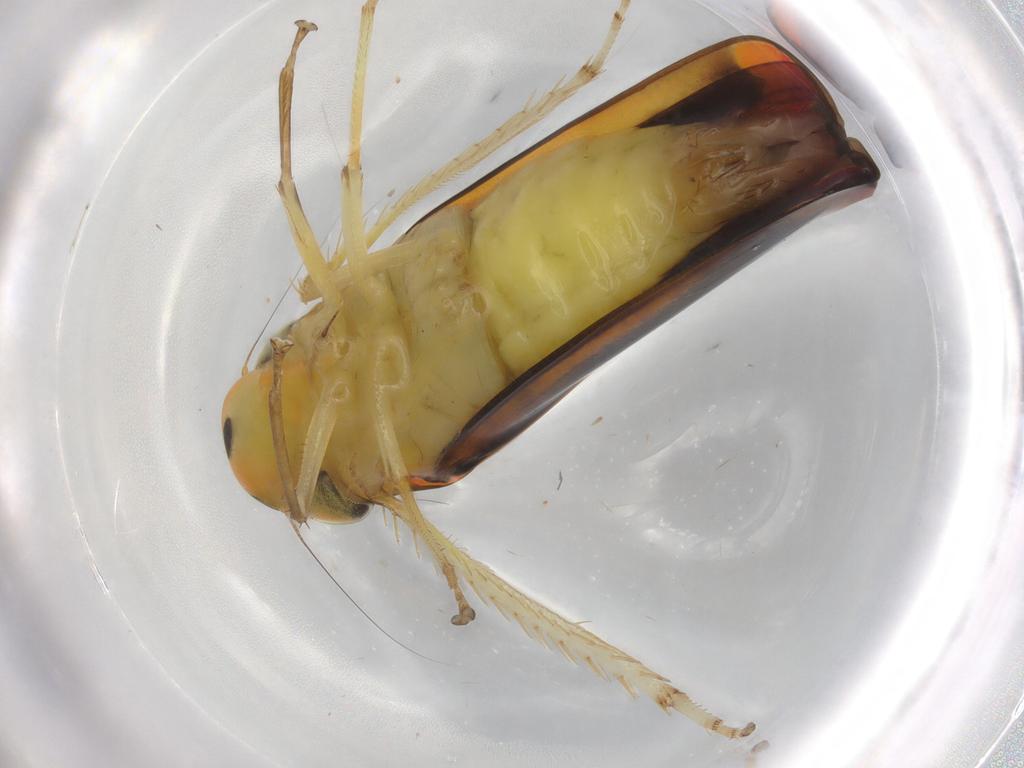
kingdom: Animalia
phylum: Arthropoda
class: Insecta
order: Hemiptera
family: Cicadellidae
